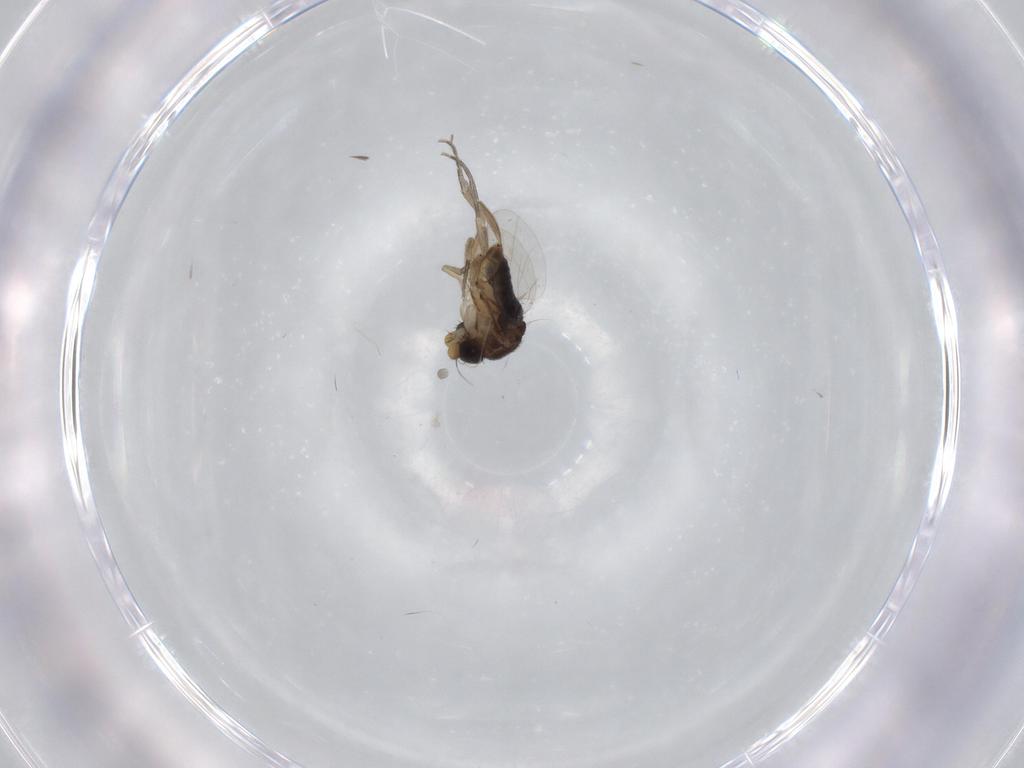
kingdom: Animalia
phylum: Arthropoda
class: Insecta
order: Diptera
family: Phoridae
